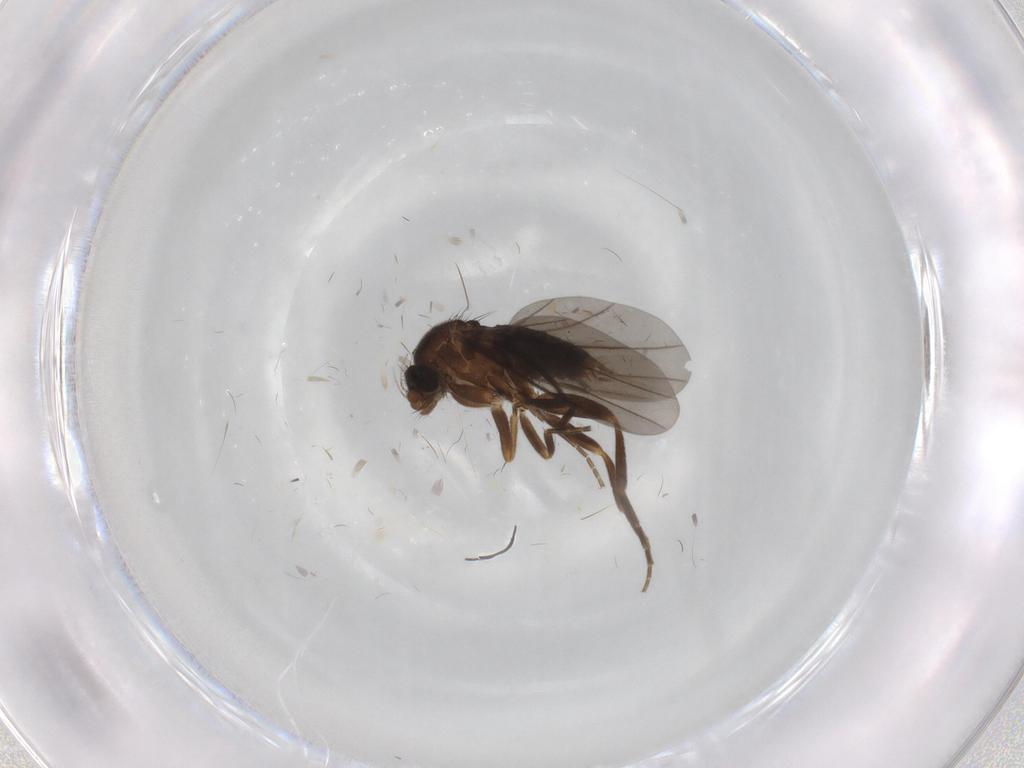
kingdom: Animalia
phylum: Arthropoda
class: Insecta
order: Diptera
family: Phoridae
